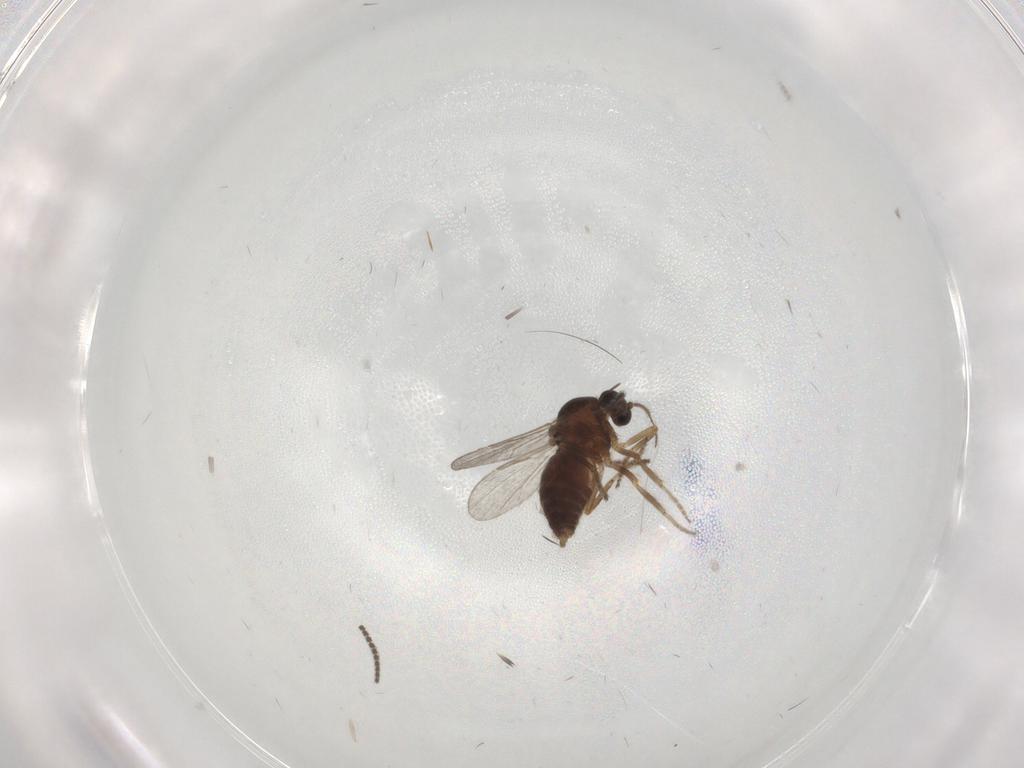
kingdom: Animalia
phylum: Arthropoda
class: Insecta
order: Diptera
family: Ceratopogonidae
